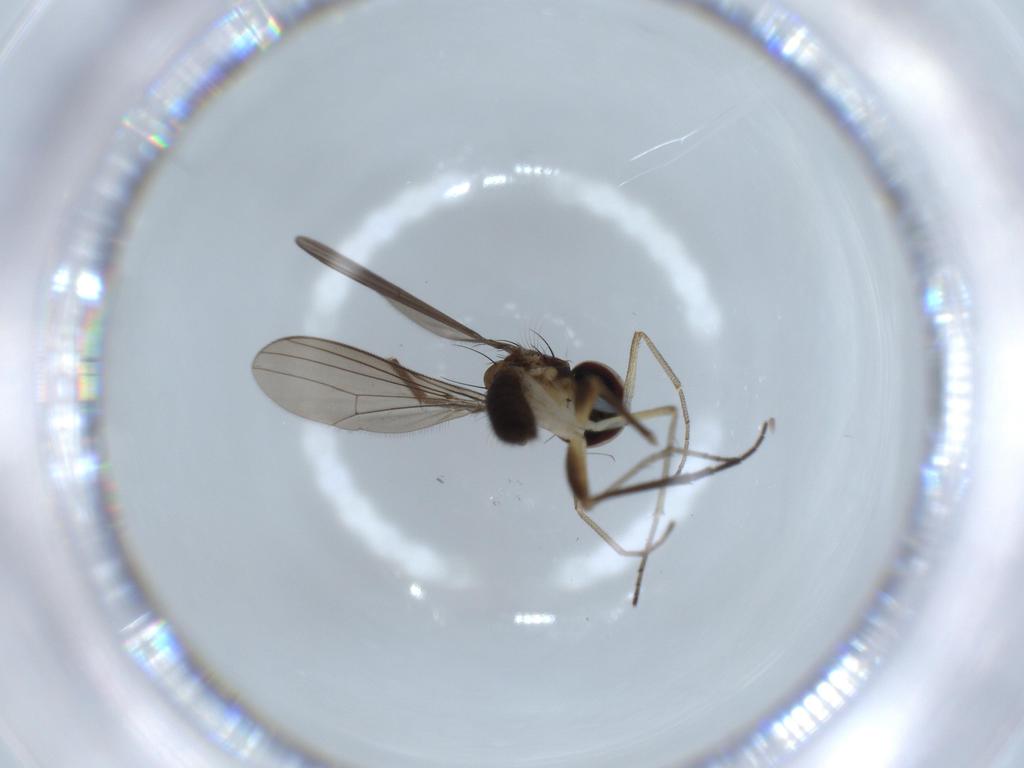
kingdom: Animalia
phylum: Arthropoda
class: Insecta
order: Diptera
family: Dolichopodidae
